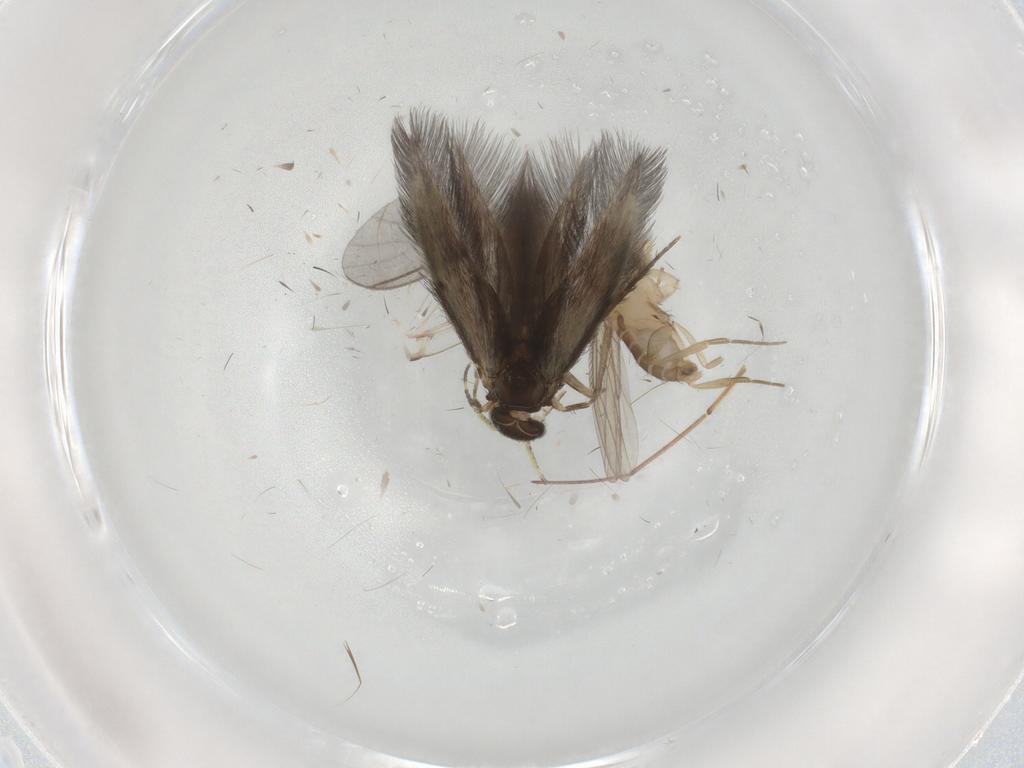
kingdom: Animalia
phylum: Arthropoda
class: Insecta
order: Trichoptera
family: Hydroptilidae
